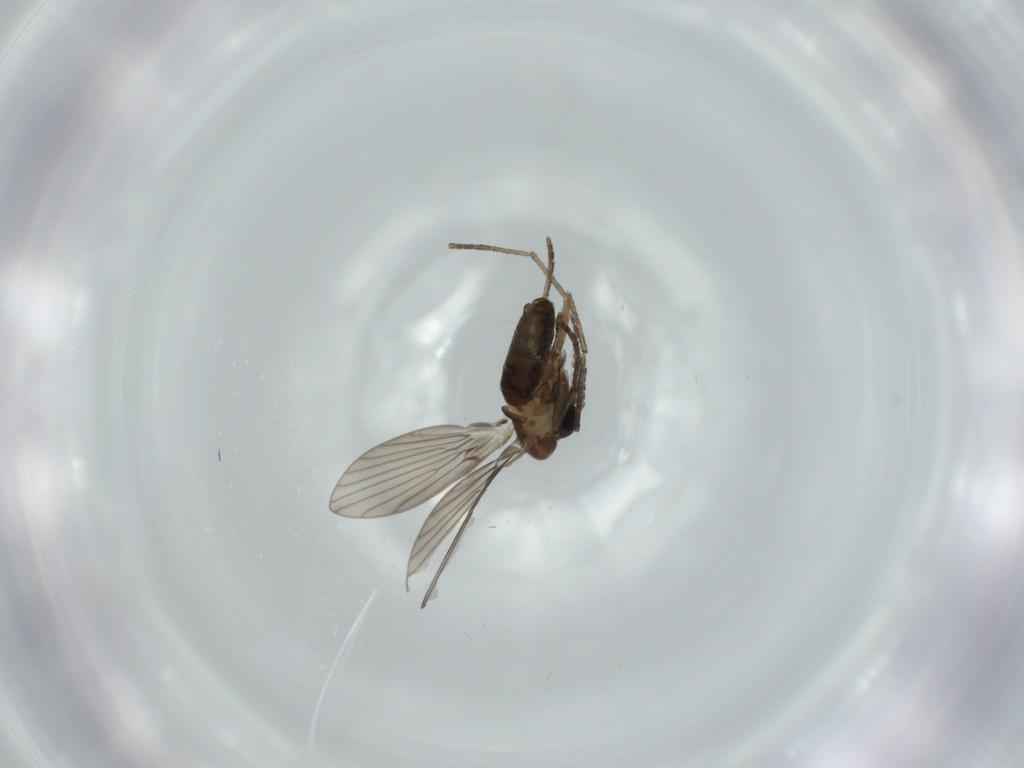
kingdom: Animalia
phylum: Arthropoda
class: Insecta
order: Diptera
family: Psychodidae
